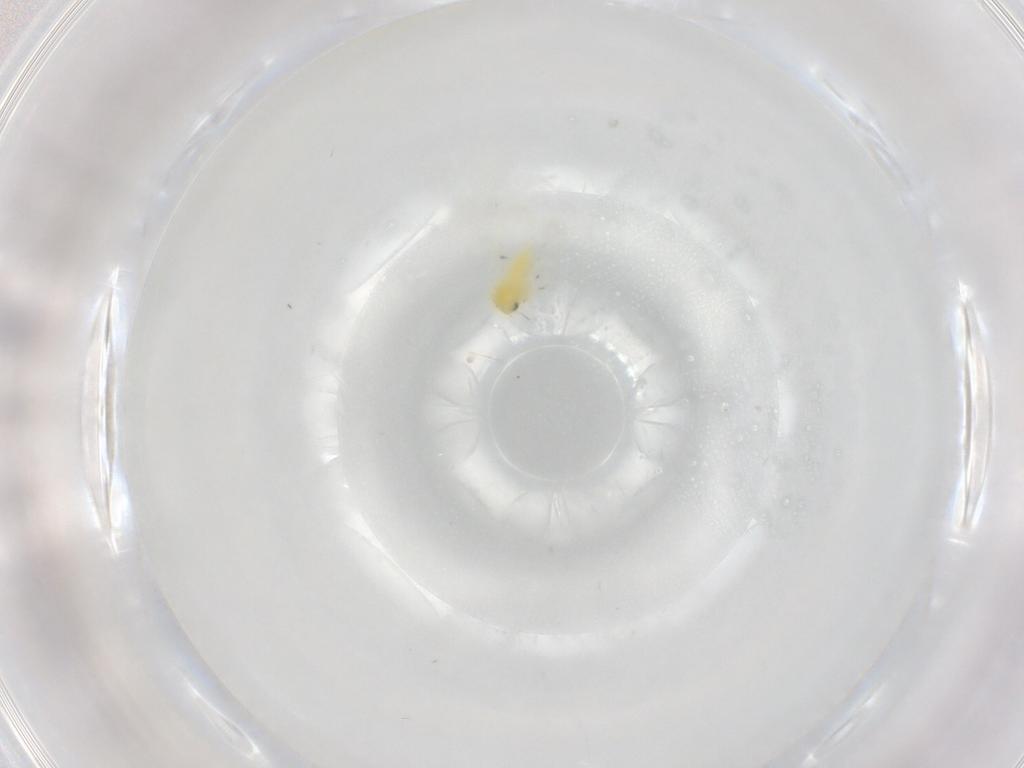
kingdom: Animalia
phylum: Arthropoda
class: Insecta
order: Hemiptera
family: Aleyrodidae
